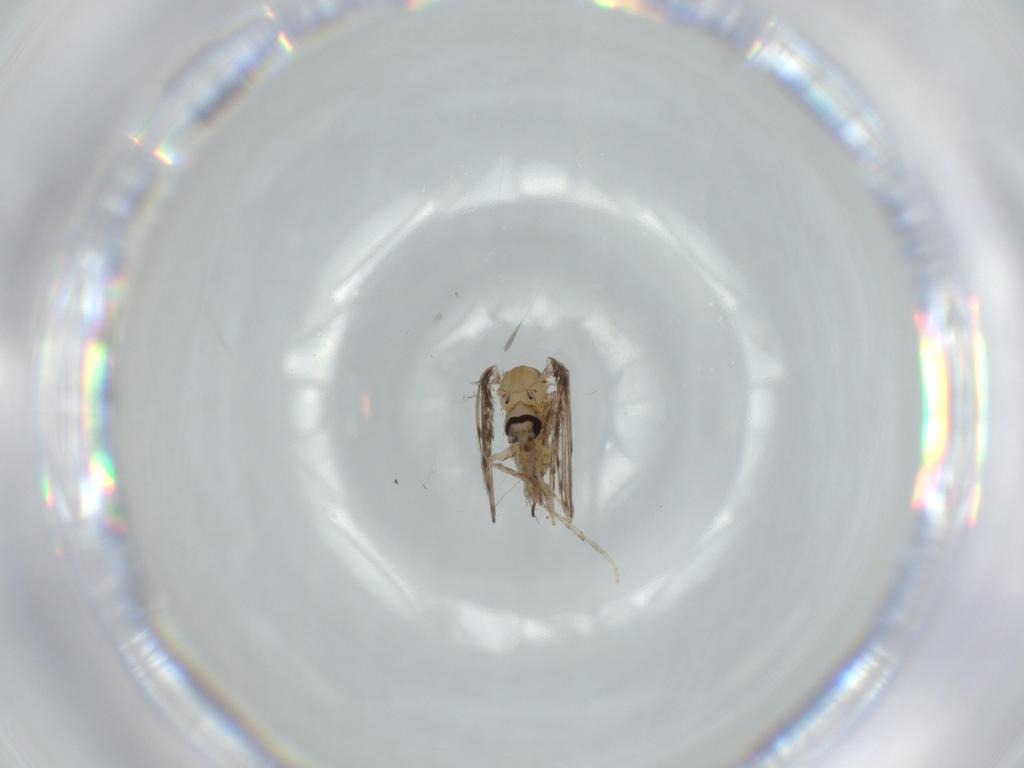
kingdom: Animalia
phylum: Arthropoda
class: Insecta
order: Diptera
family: Psychodidae
